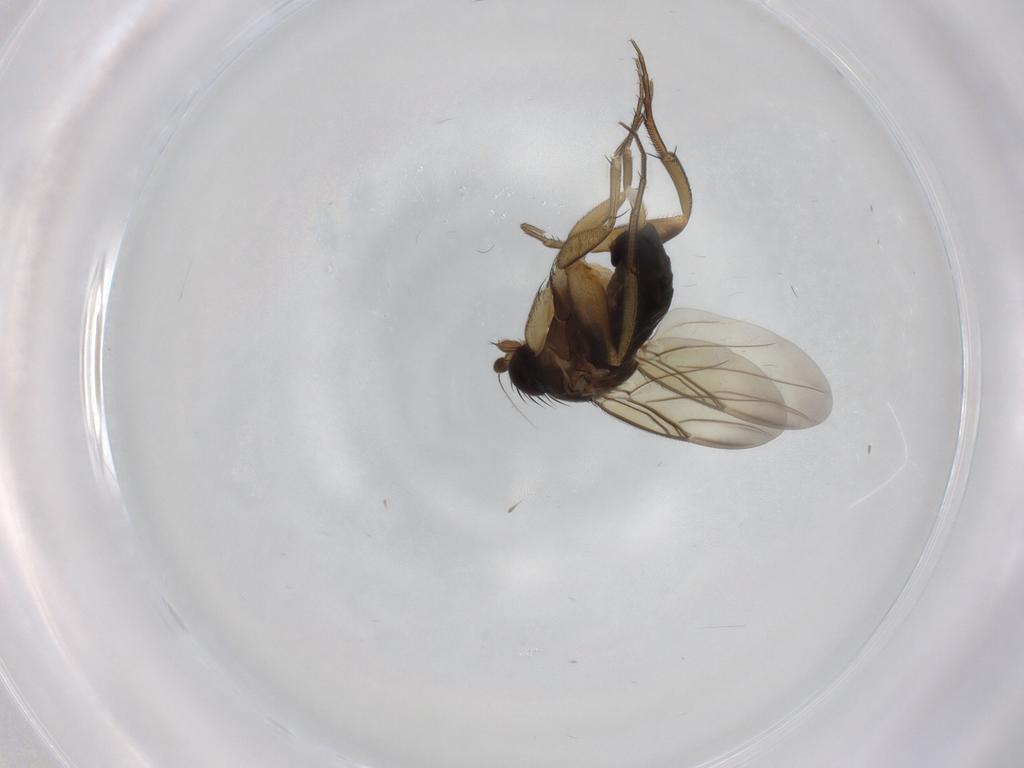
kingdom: Animalia
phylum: Arthropoda
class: Insecta
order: Diptera
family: Phoridae
